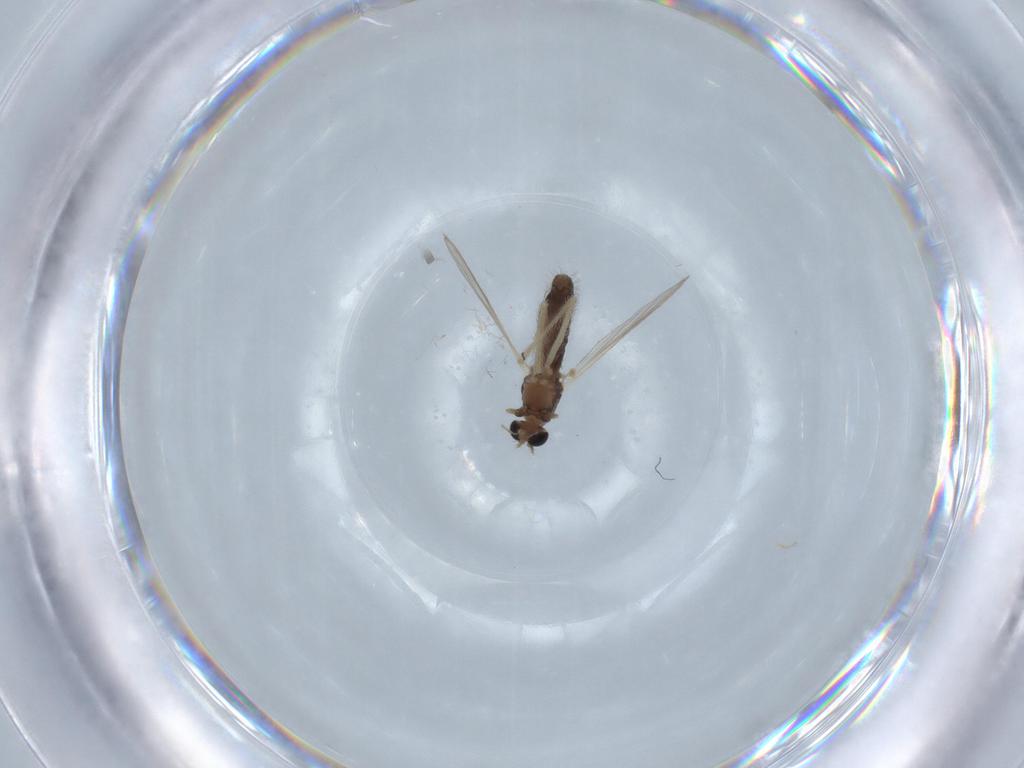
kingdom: Animalia
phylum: Arthropoda
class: Insecta
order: Diptera
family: Chironomidae
